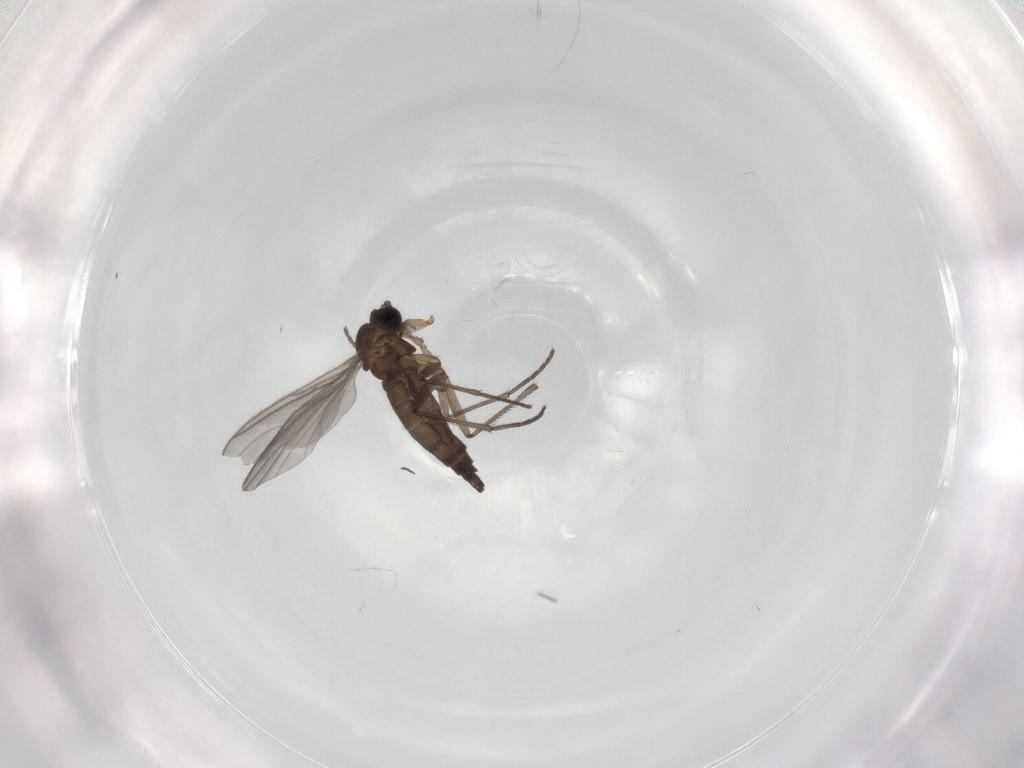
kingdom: Animalia
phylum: Arthropoda
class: Insecta
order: Diptera
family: Sciaridae
